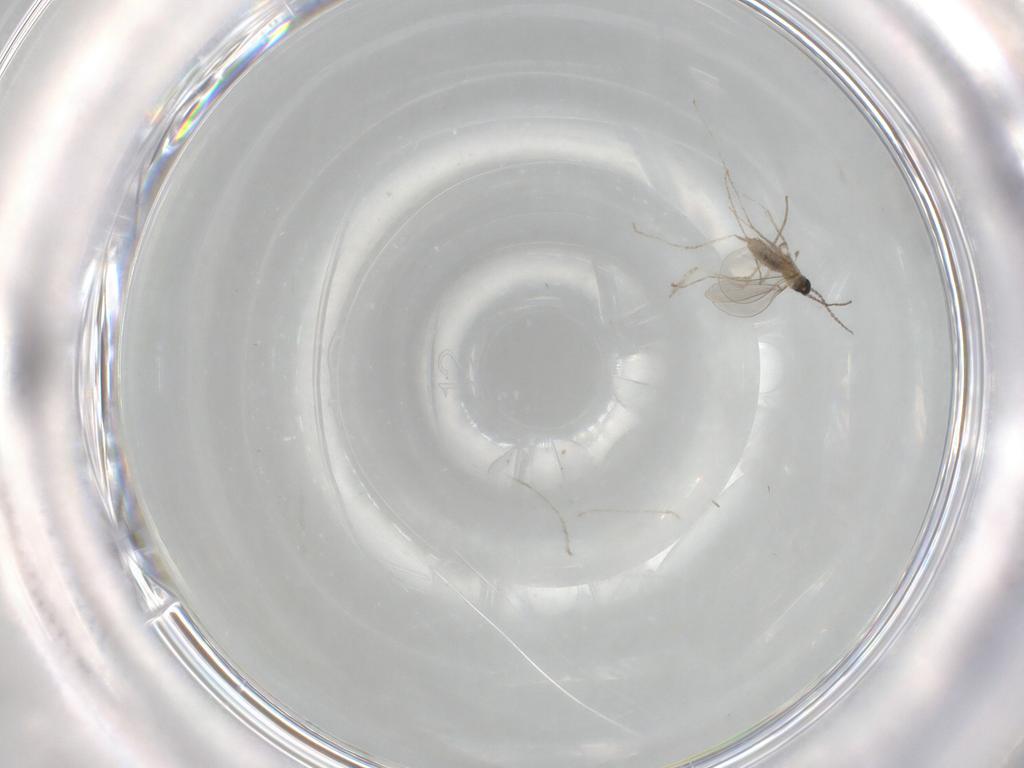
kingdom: Animalia
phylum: Arthropoda
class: Insecta
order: Diptera
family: Cecidomyiidae
